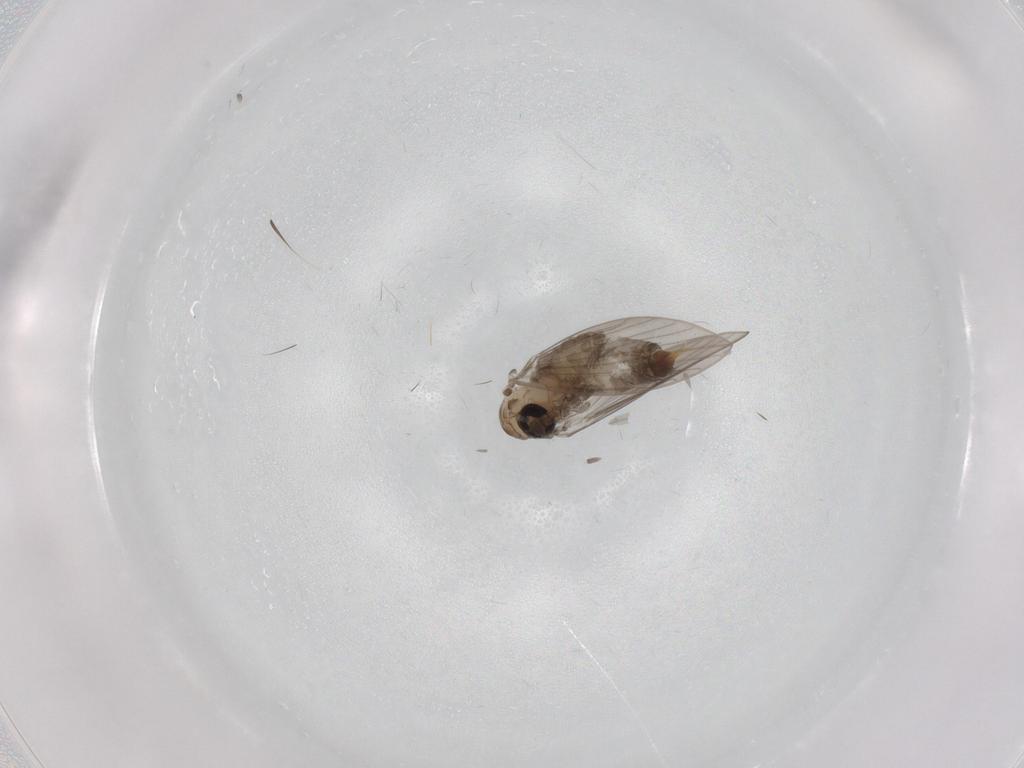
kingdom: Animalia
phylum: Arthropoda
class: Insecta
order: Diptera
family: Psychodidae
